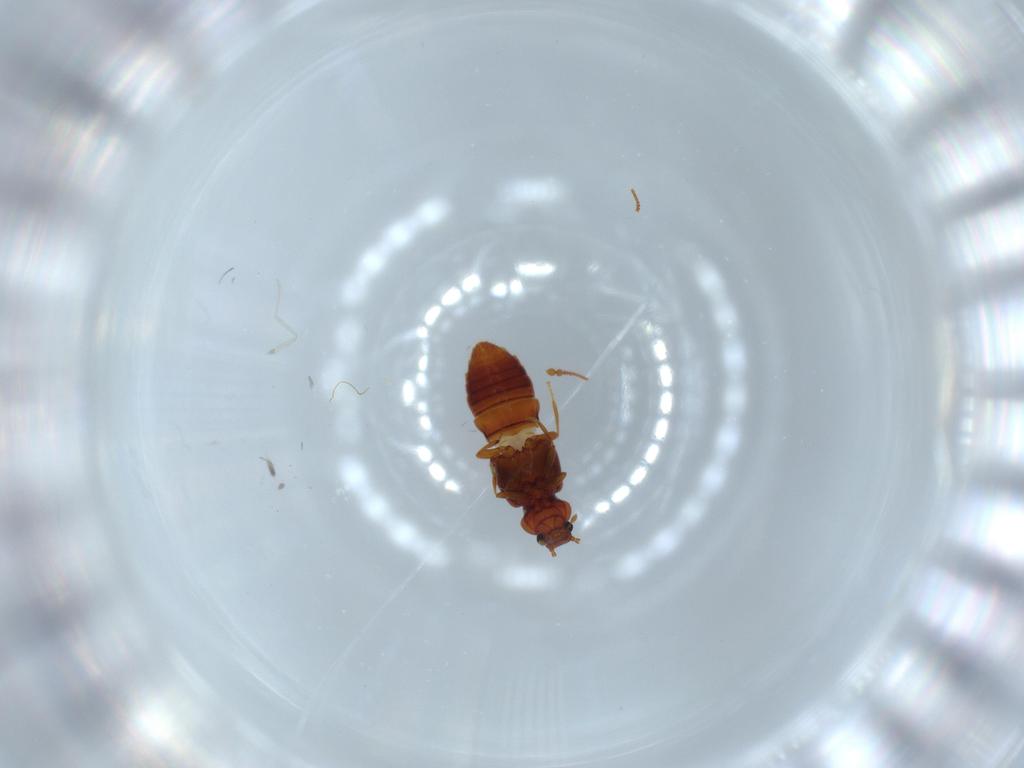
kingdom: Animalia
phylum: Arthropoda
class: Insecta
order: Coleoptera
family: Staphylinidae
